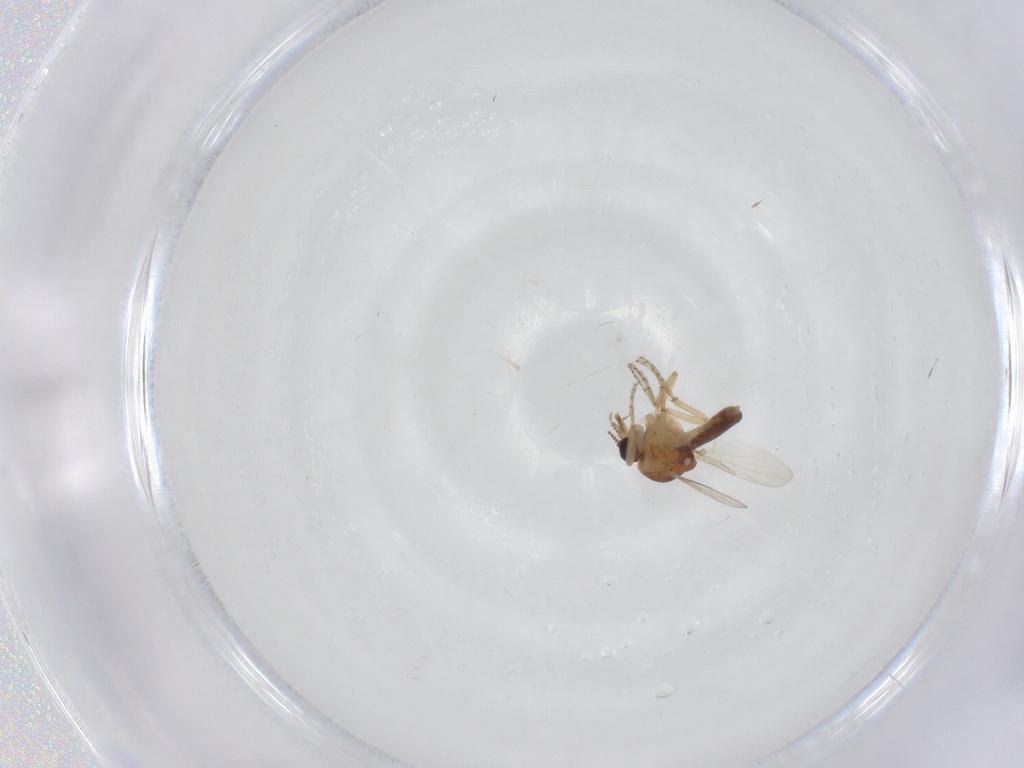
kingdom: Animalia
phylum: Arthropoda
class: Insecta
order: Diptera
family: Ceratopogonidae
